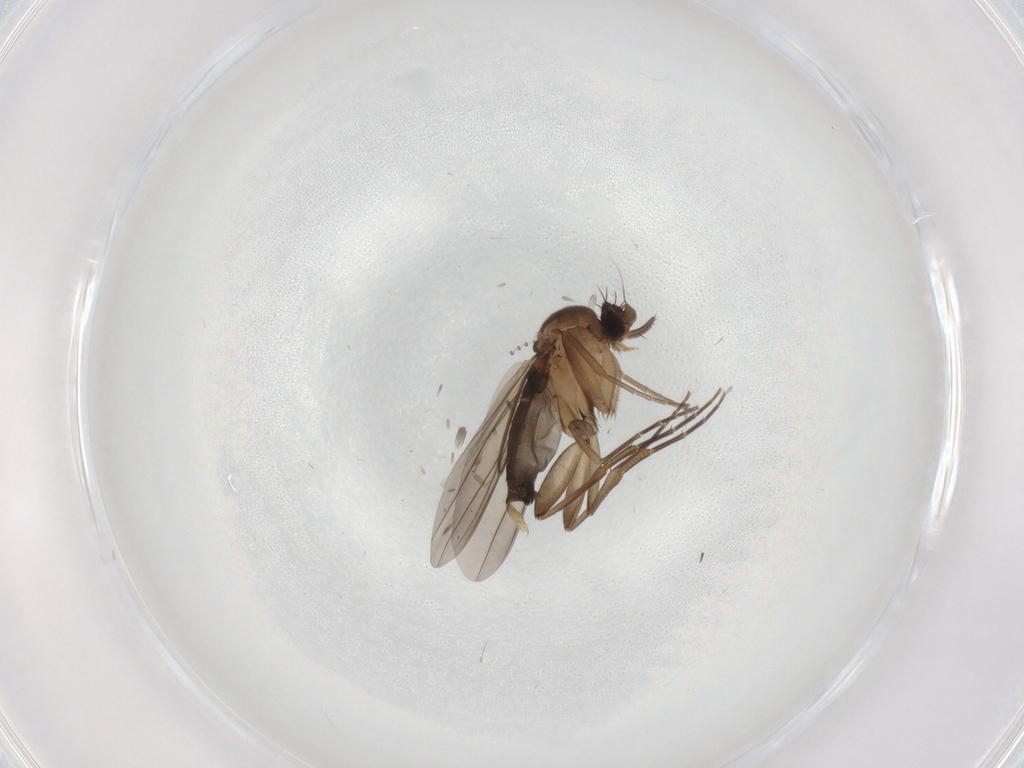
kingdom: Animalia
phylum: Arthropoda
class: Insecta
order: Diptera
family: Phoridae
